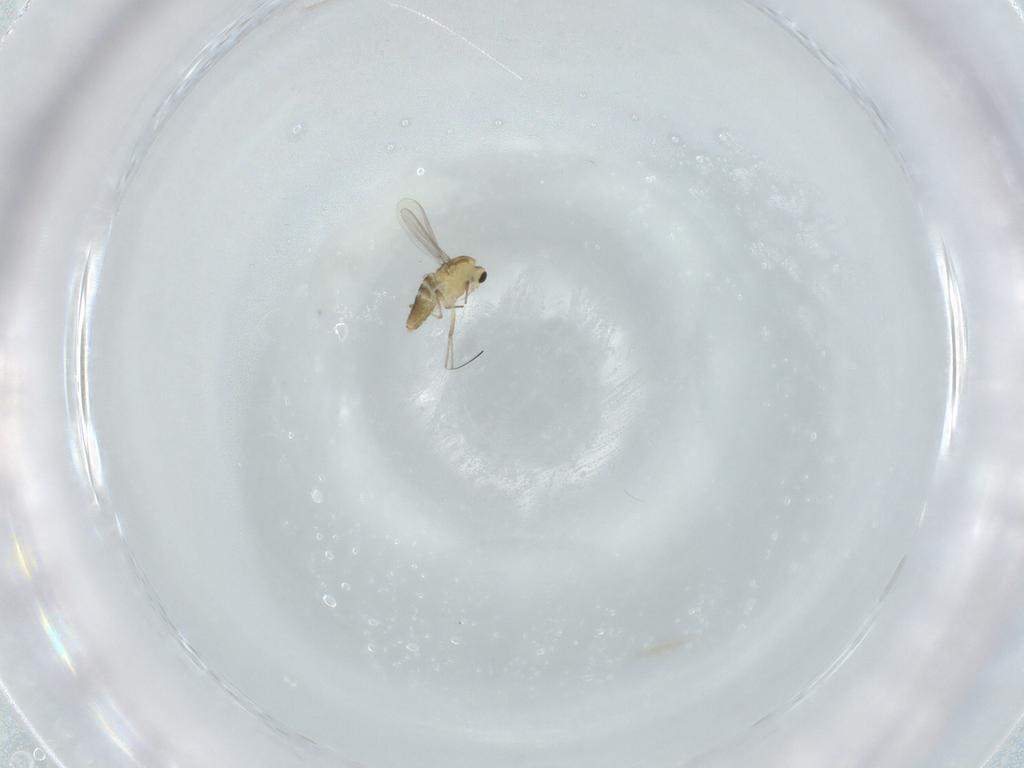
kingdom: Animalia
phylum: Arthropoda
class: Insecta
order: Diptera
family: Chironomidae
